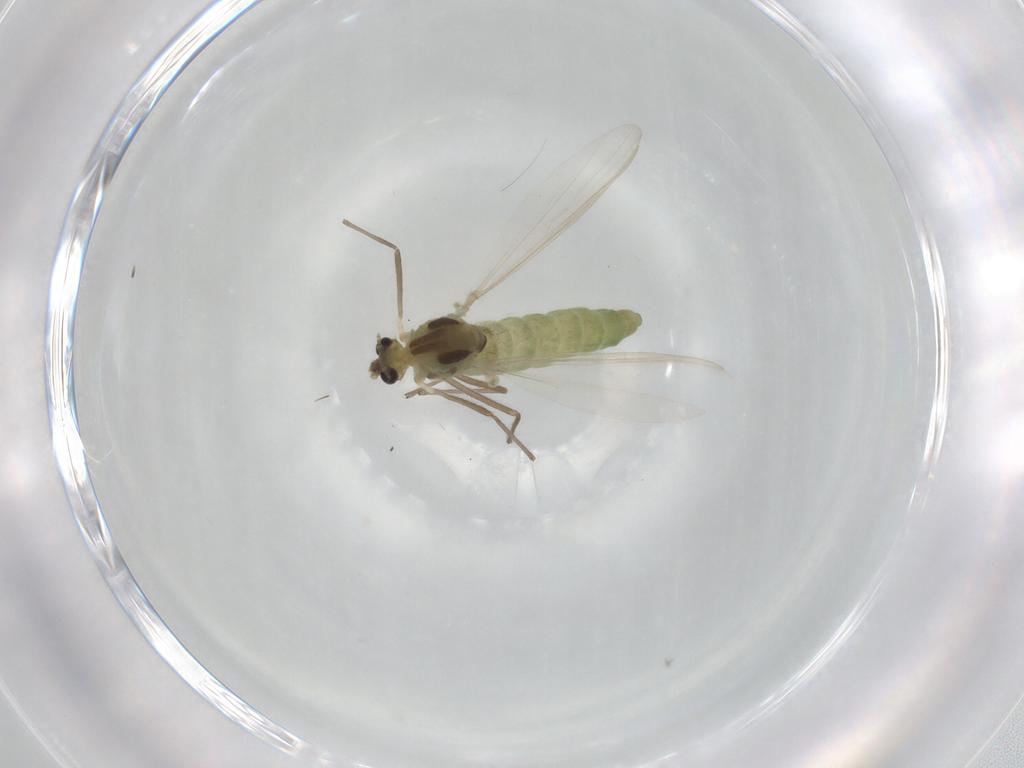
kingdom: Animalia
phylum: Arthropoda
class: Insecta
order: Diptera
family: Chironomidae
